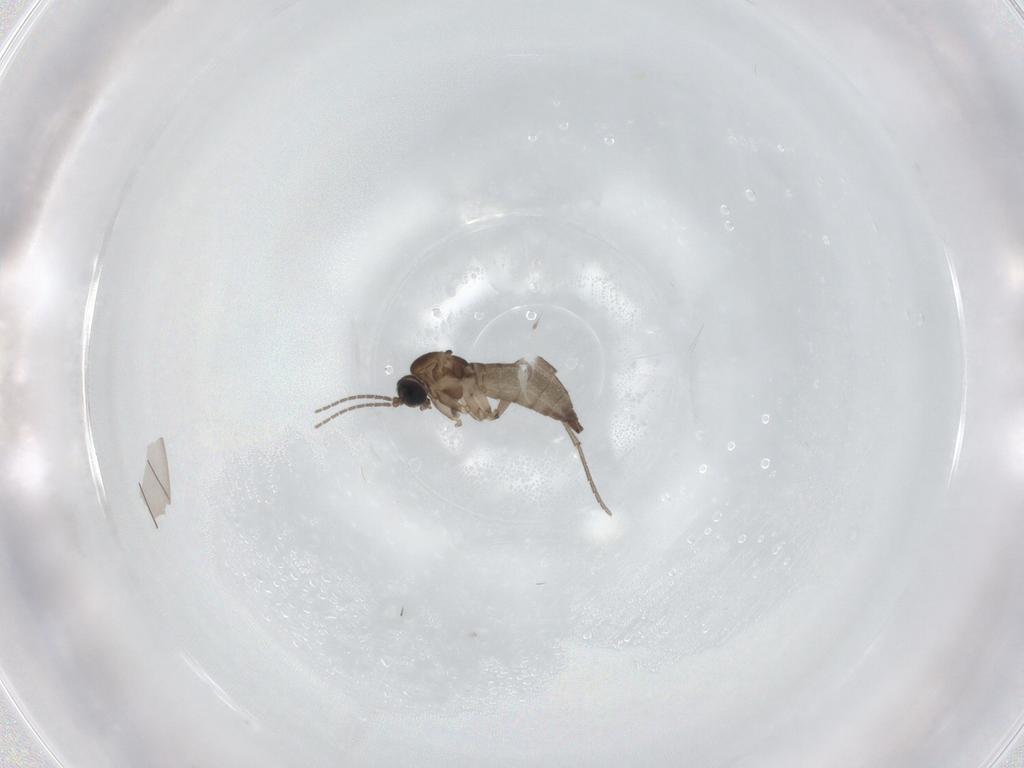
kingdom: Animalia
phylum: Arthropoda
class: Insecta
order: Diptera
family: Sciaridae
